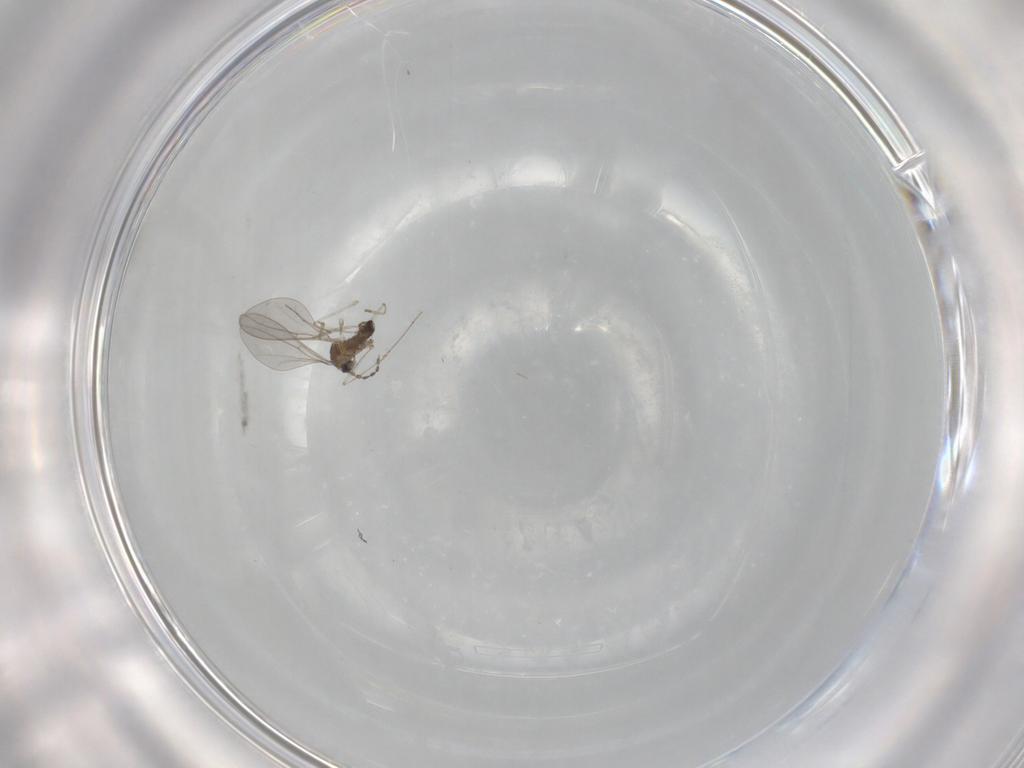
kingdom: Animalia
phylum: Arthropoda
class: Insecta
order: Diptera
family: Cecidomyiidae
